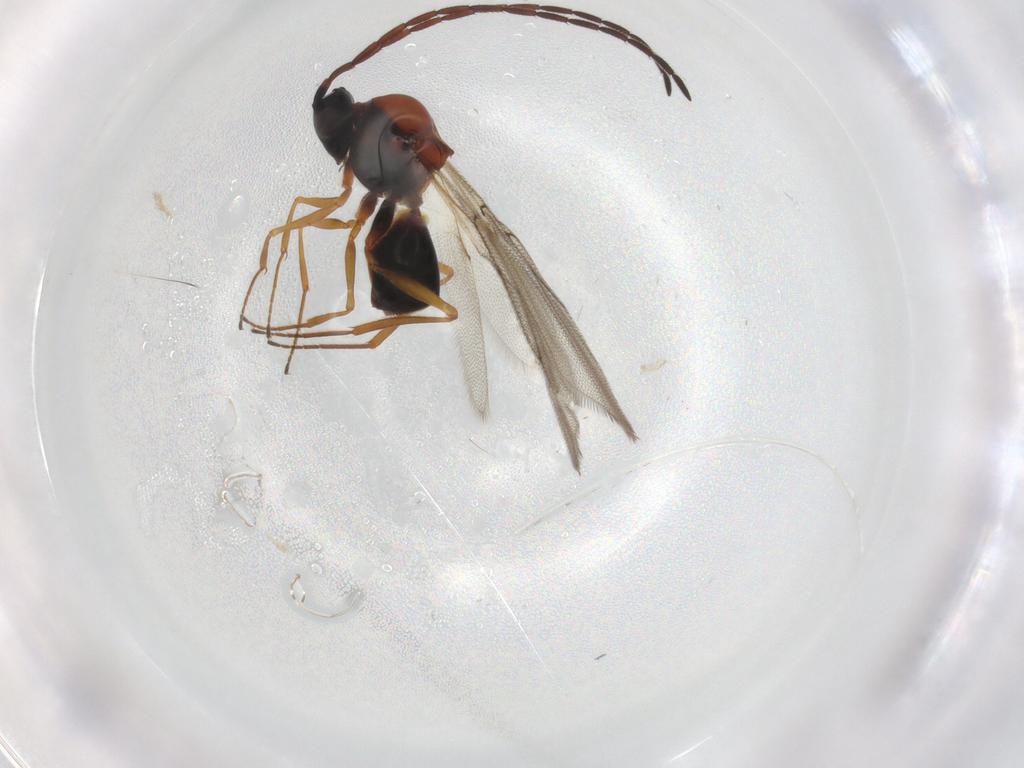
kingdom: Animalia
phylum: Arthropoda
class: Insecta
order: Hymenoptera
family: Figitidae
